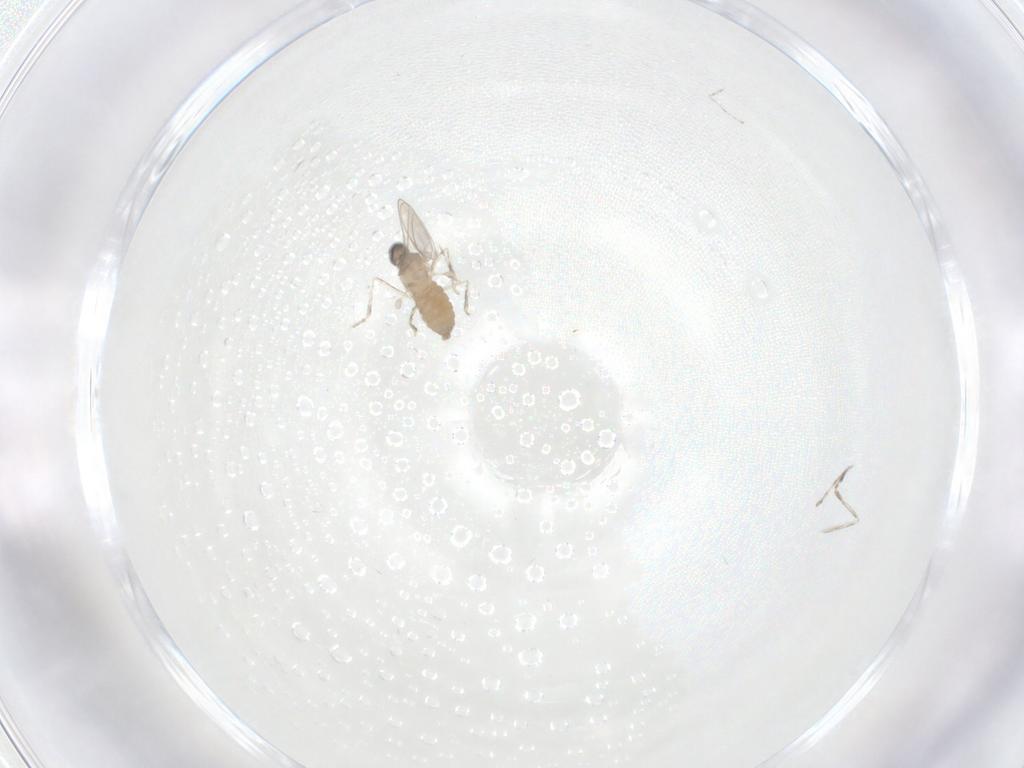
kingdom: Animalia
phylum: Arthropoda
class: Insecta
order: Diptera
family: Cecidomyiidae
